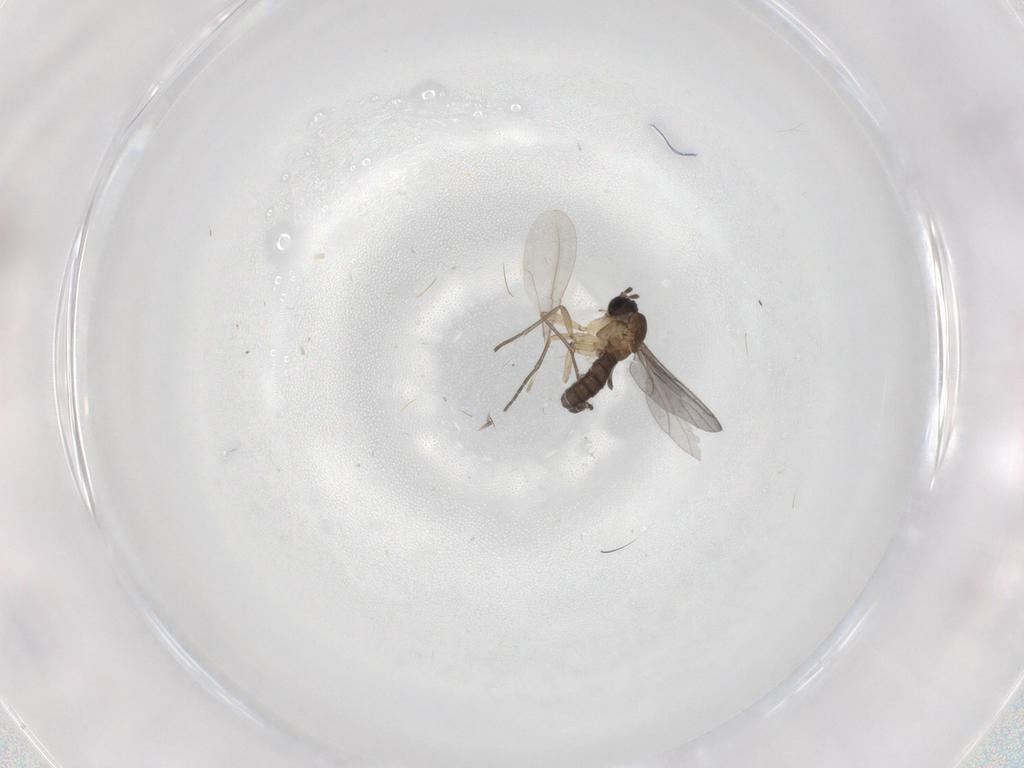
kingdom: Animalia
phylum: Arthropoda
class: Insecta
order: Diptera
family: Sciaridae
